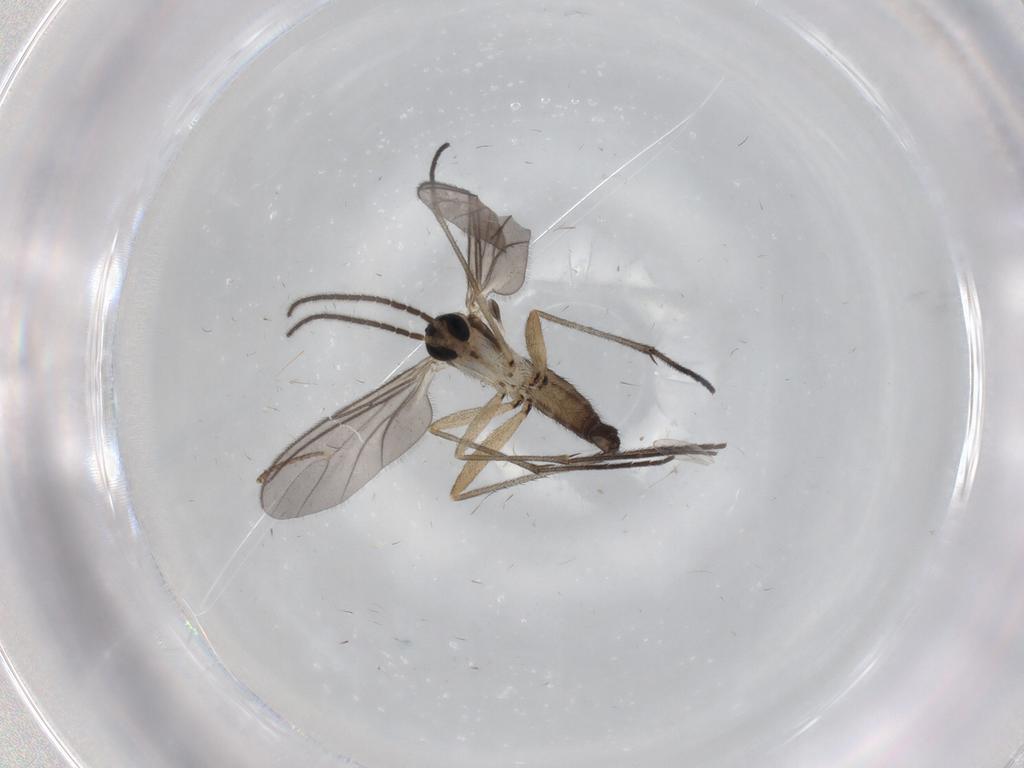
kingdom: Animalia
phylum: Arthropoda
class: Insecta
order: Diptera
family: Sciaridae
